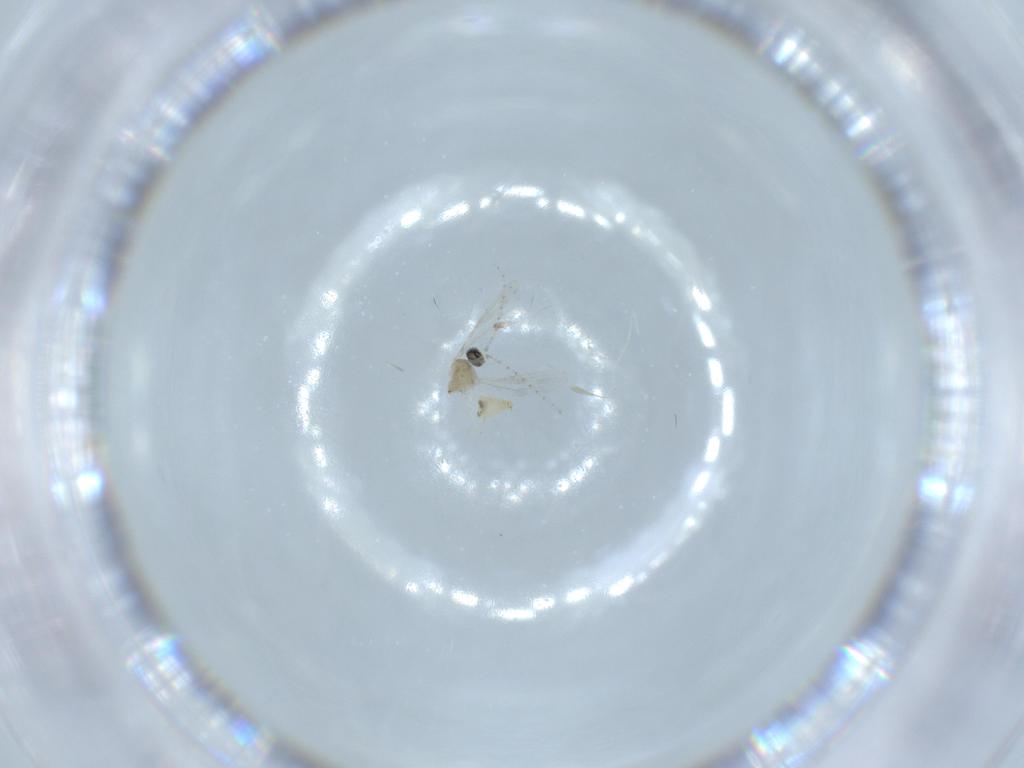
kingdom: Animalia
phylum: Arthropoda
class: Insecta
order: Diptera
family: Cecidomyiidae
